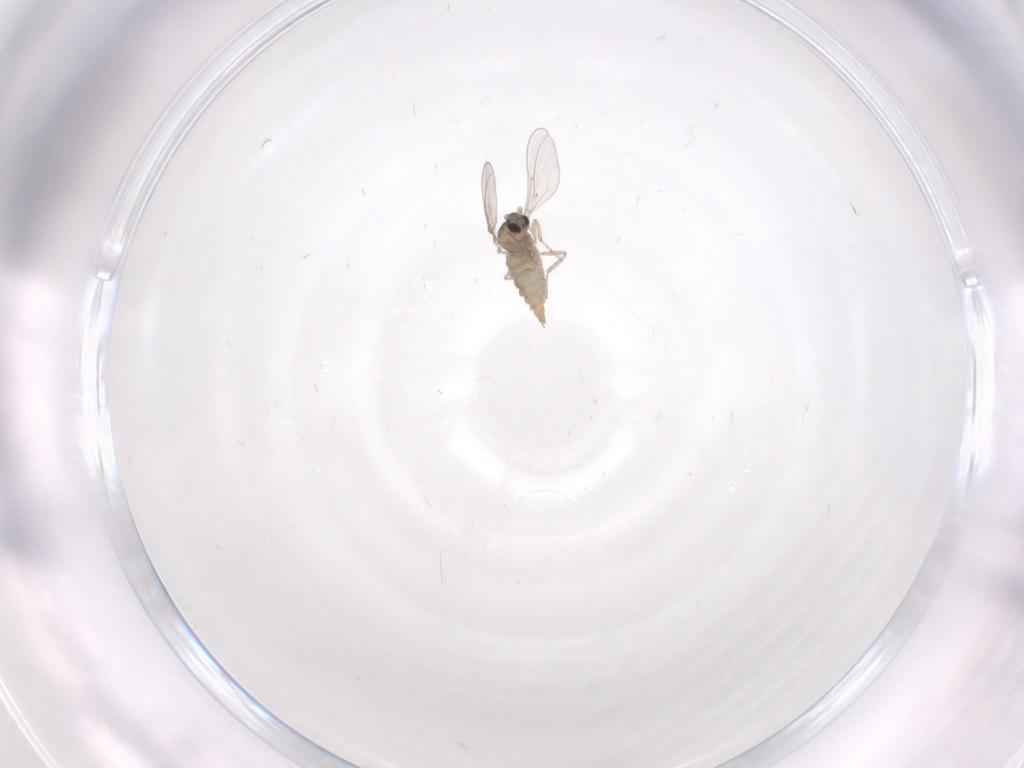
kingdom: Animalia
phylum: Arthropoda
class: Insecta
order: Diptera
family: Cecidomyiidae
